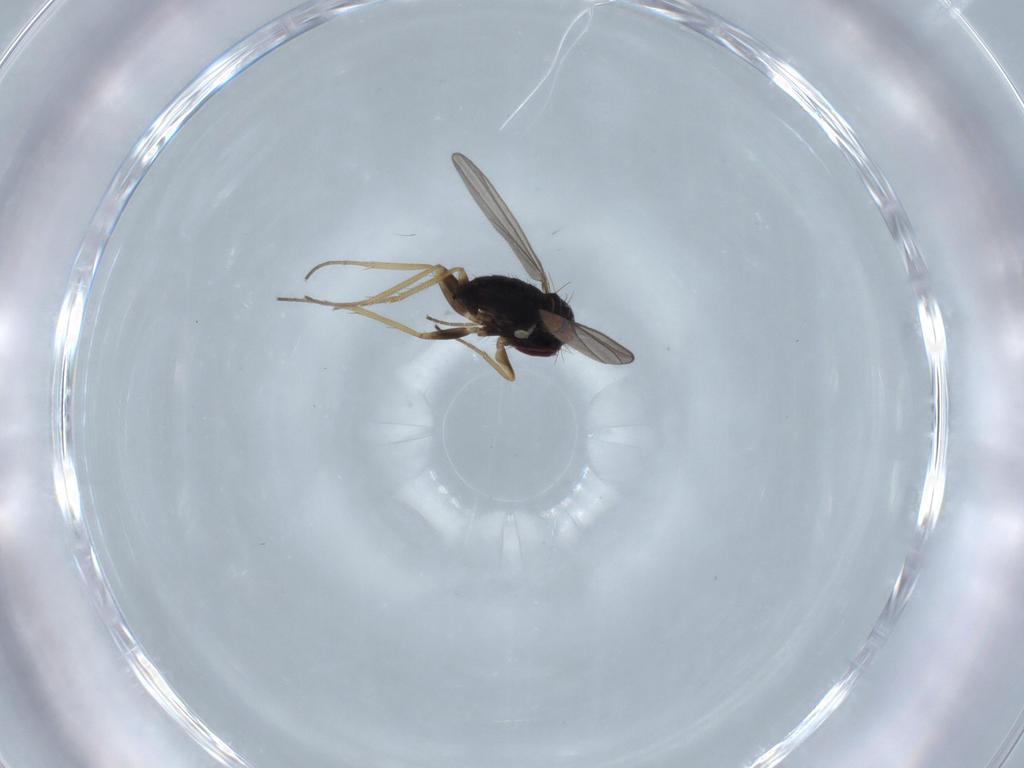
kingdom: Animalia
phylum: Arthropoda
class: Insecta
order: Diptera
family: Dolichopodidae
